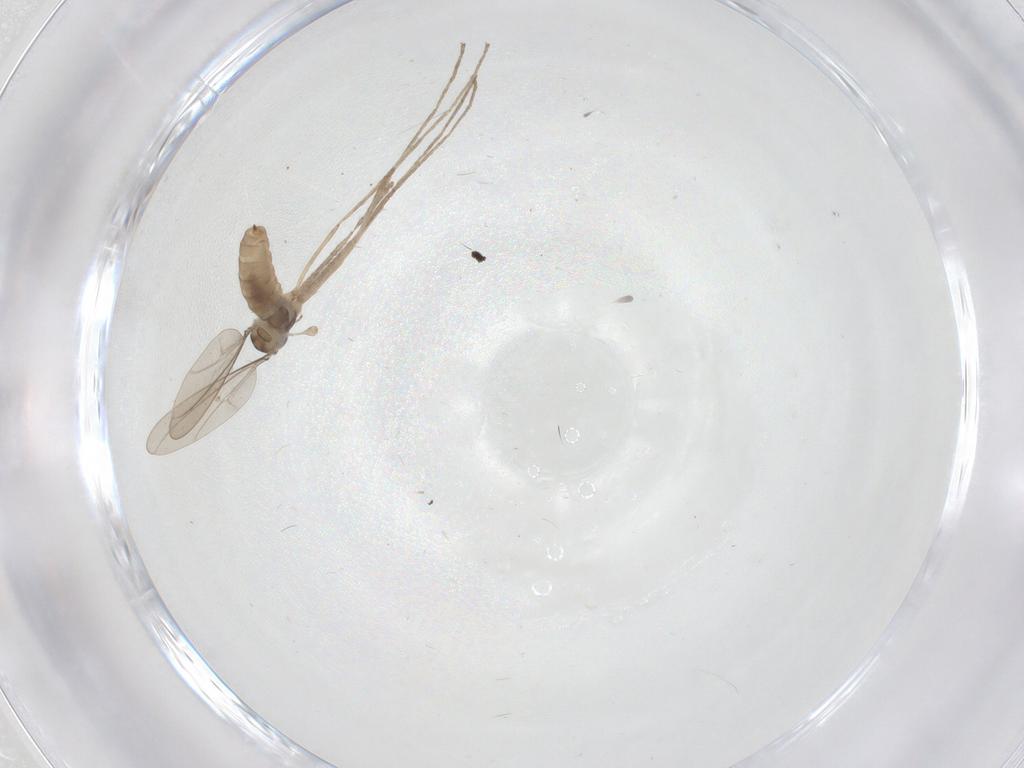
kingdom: Animalia
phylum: Arthropoda
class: Insecta
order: Diptera
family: Cecidomyiidae
